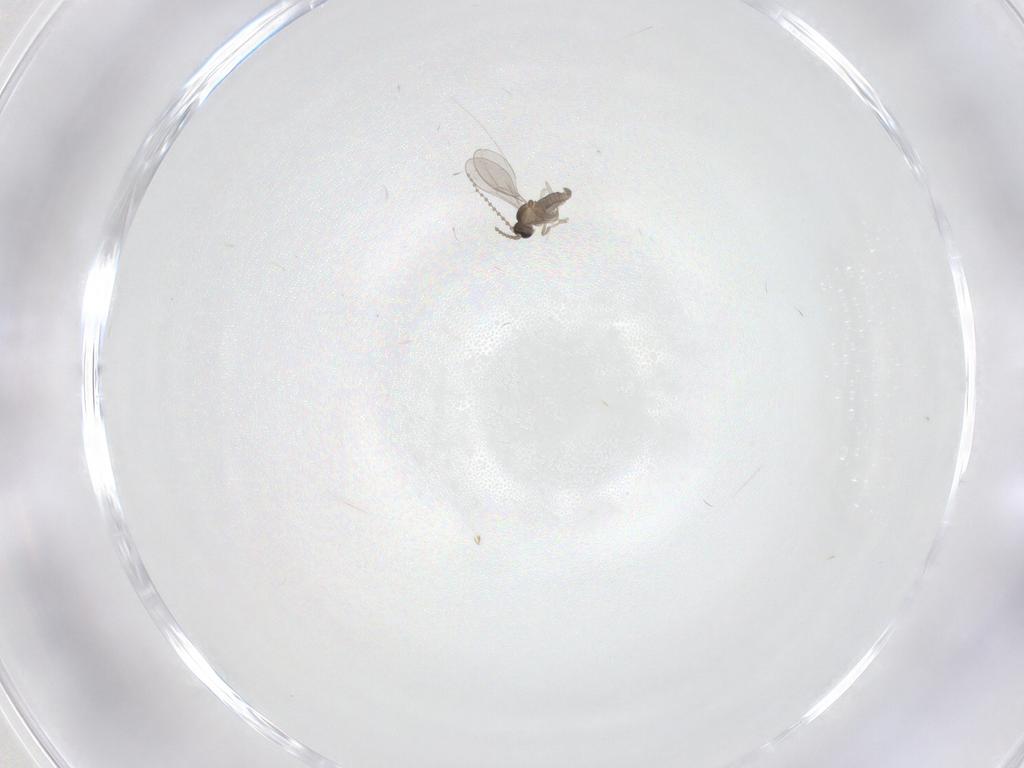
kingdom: Animalia
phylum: Arthropoda
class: Insecta
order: Diptera
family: Cecidomyiidae
